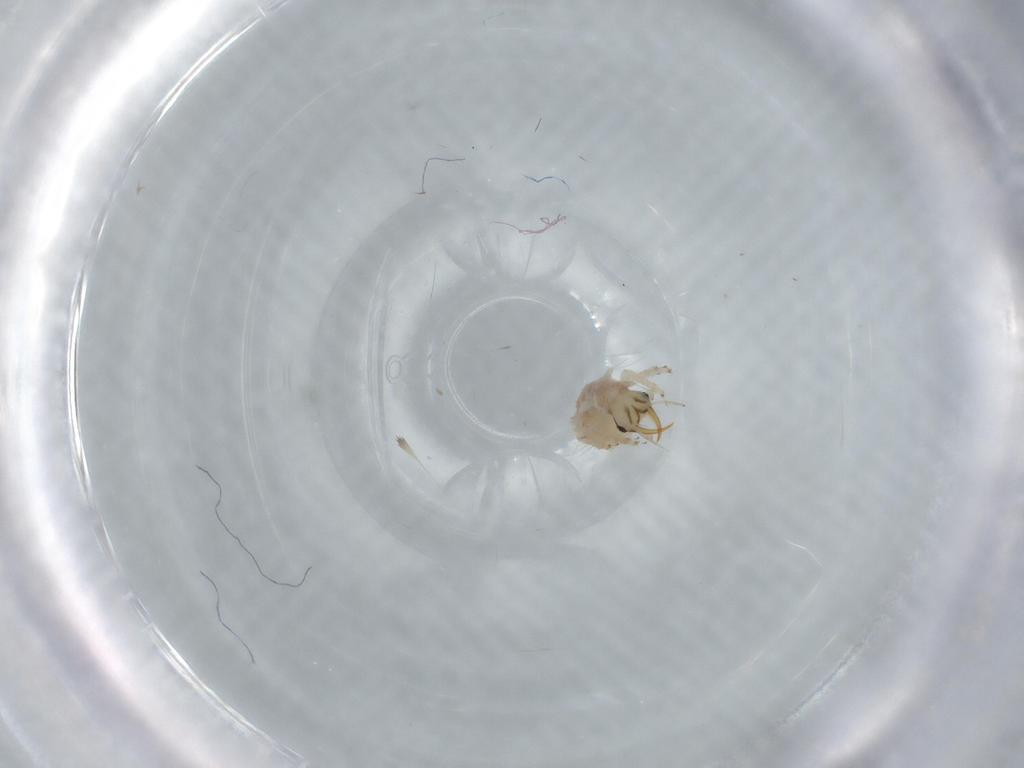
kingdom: Animalia
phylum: Arthropoda
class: Insecta
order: Neuroptera
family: Chrysopidae
